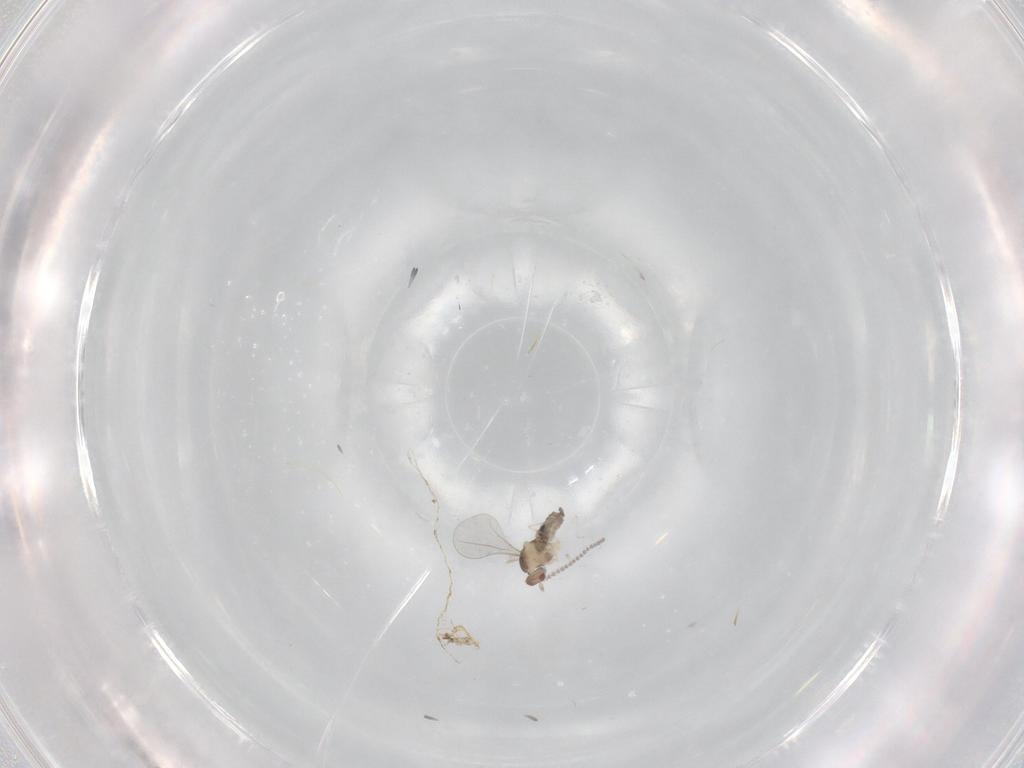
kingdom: Animalia
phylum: Arthropoda
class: Insecta
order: Diptera
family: Cecidomyiidae
